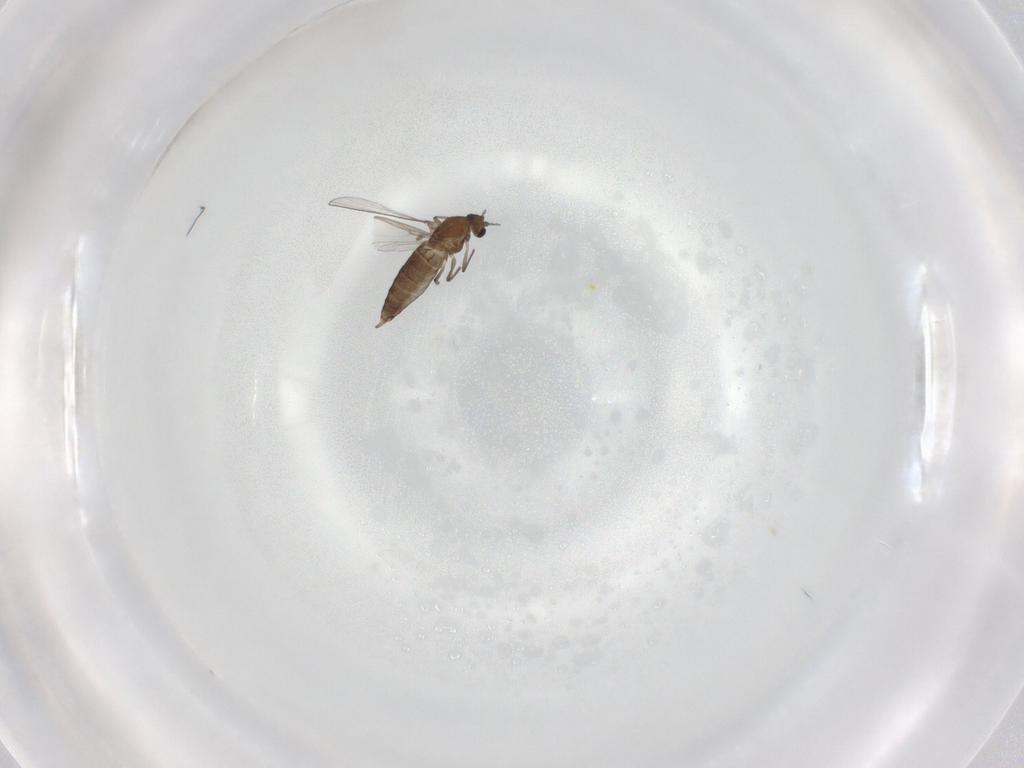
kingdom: Animalia
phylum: Arthropoda
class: Insecta
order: Diptera
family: Chironomidae
